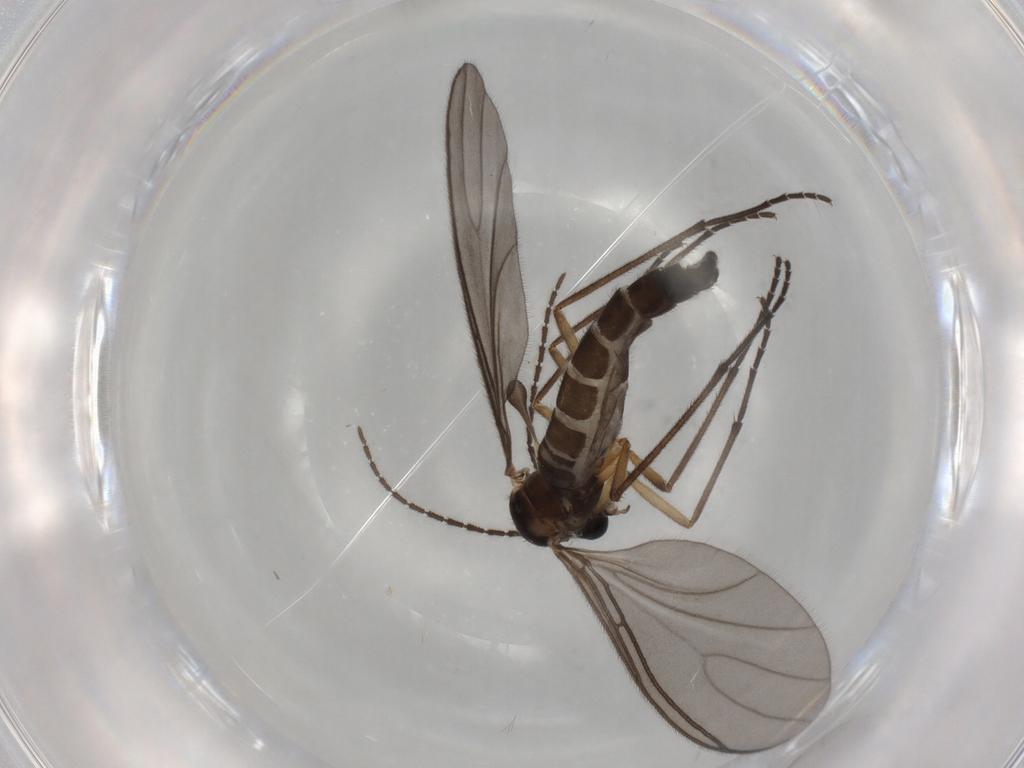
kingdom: Animalia
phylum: Arthropoda
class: Insecta
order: Diptera
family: Sciaridae
